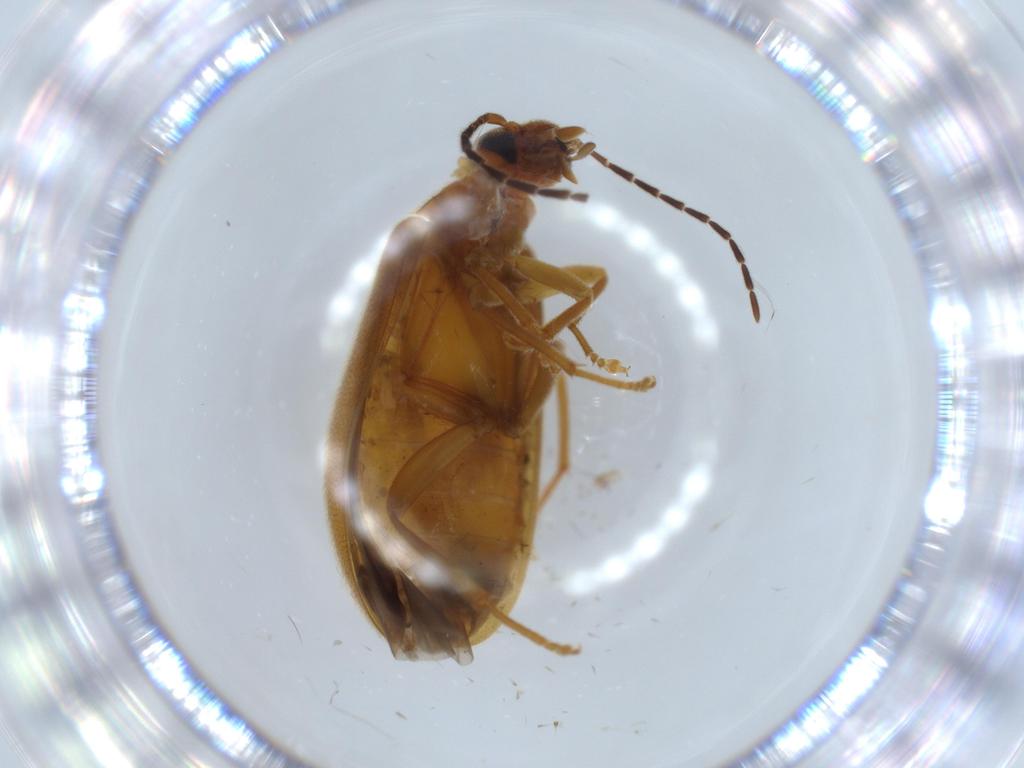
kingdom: Animalia
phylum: Arthropoda
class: Insecta
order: Coleoptera
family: Scraptiidae
